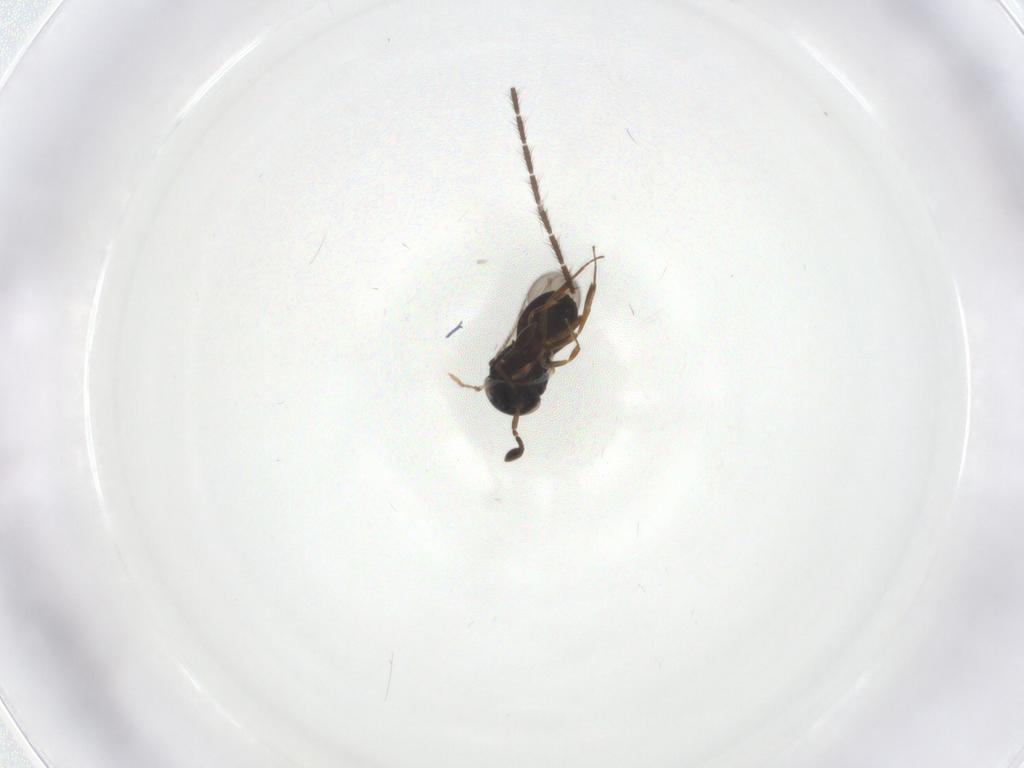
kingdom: Animalia
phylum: Arthropoda
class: Insecta
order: Hymenoptera
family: Scelionidae
